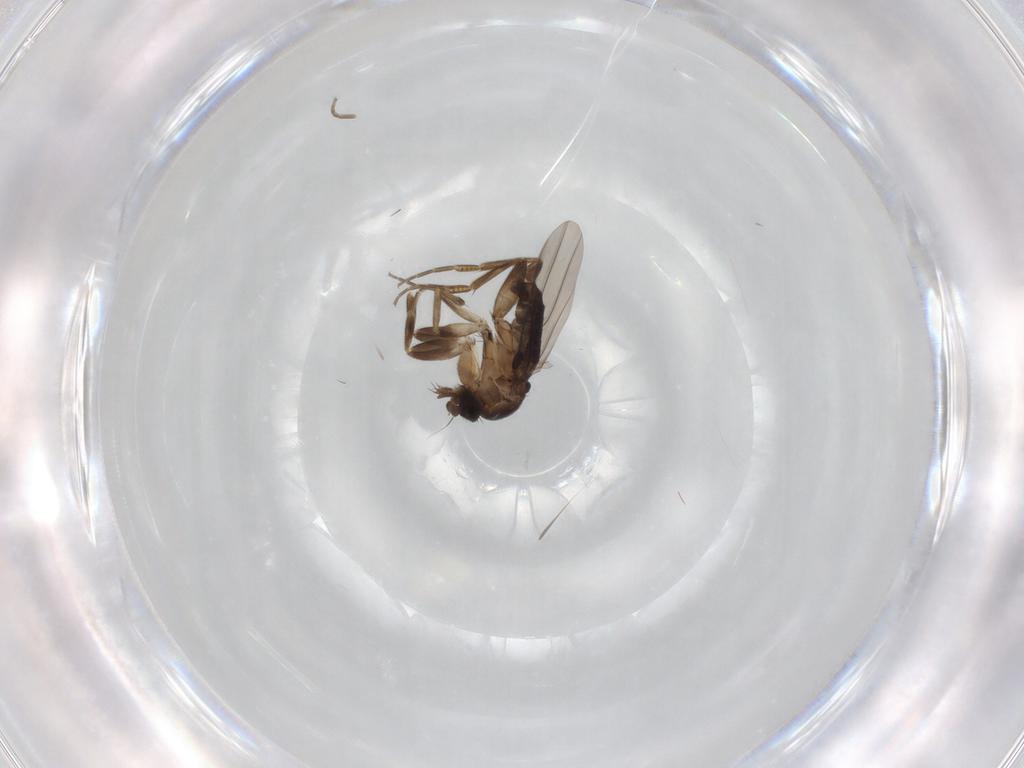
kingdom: Animalia
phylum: Arthropoda
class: Insecta
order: Diptera
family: Phoridae
